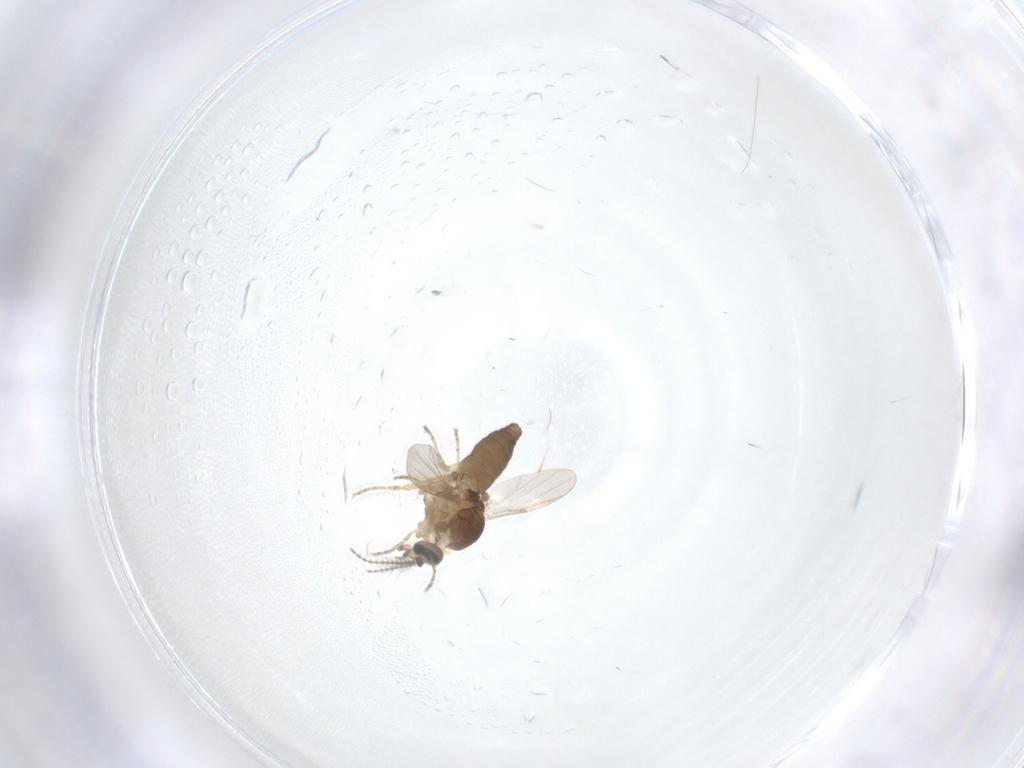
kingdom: Animalia
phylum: Arthropoda
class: Insecta
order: Diptera
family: Ceratopogonidae
